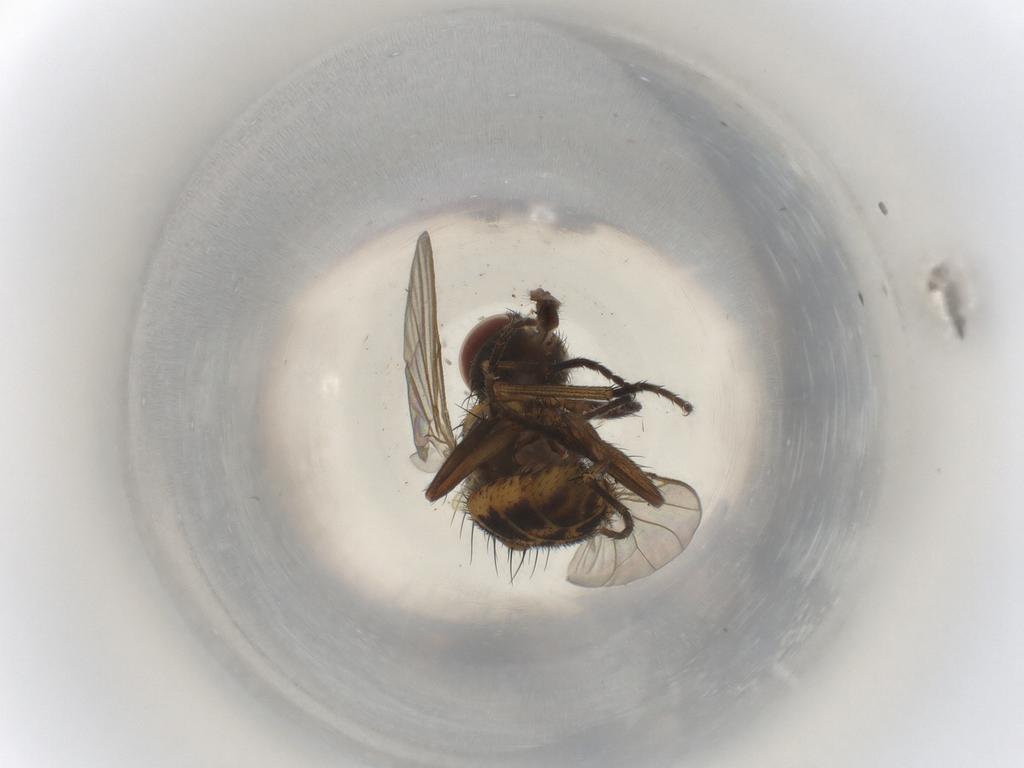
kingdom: Animalia
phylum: Arthropoda
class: Insecta
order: Diptera
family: Muscidae
